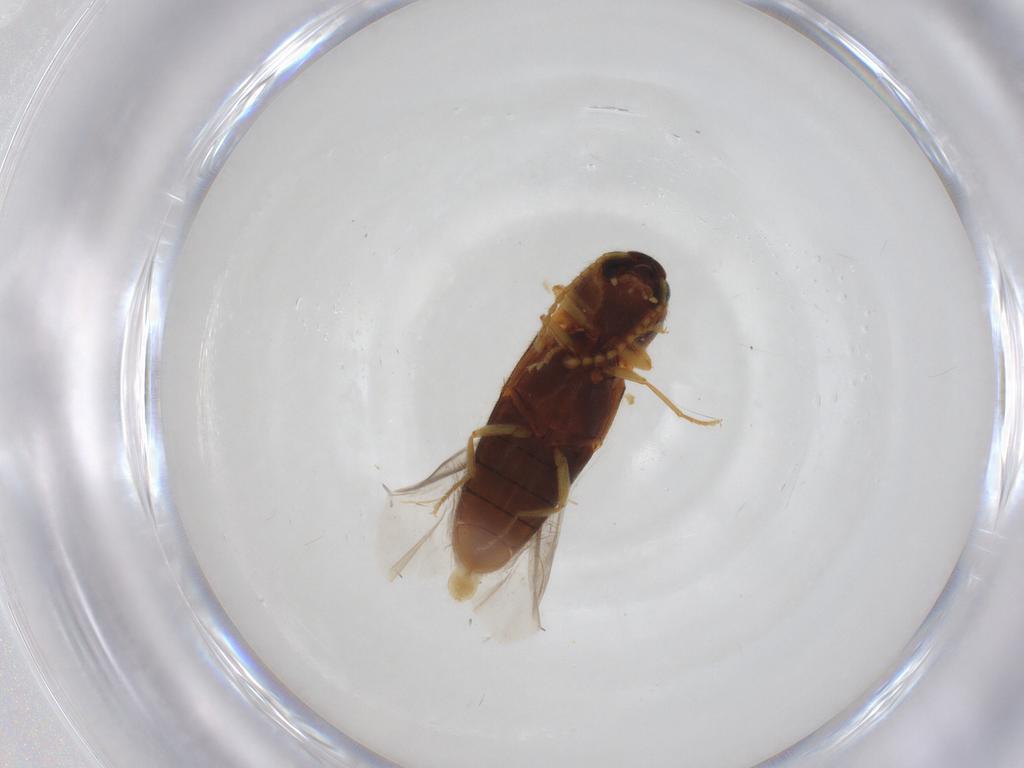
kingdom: Animalia
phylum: Arthropoda
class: Insecta
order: Coleoptera
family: Elateridae
